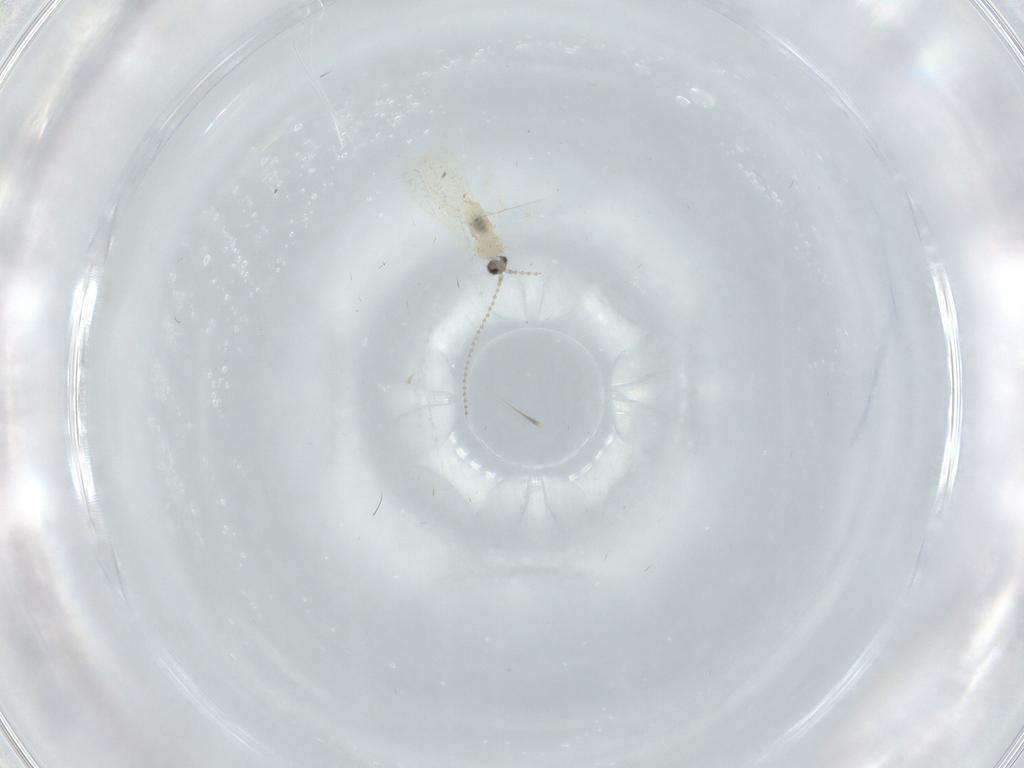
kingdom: Animalia
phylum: Arthropoda
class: Insecta
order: Diptera
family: Cecidomyiidae
